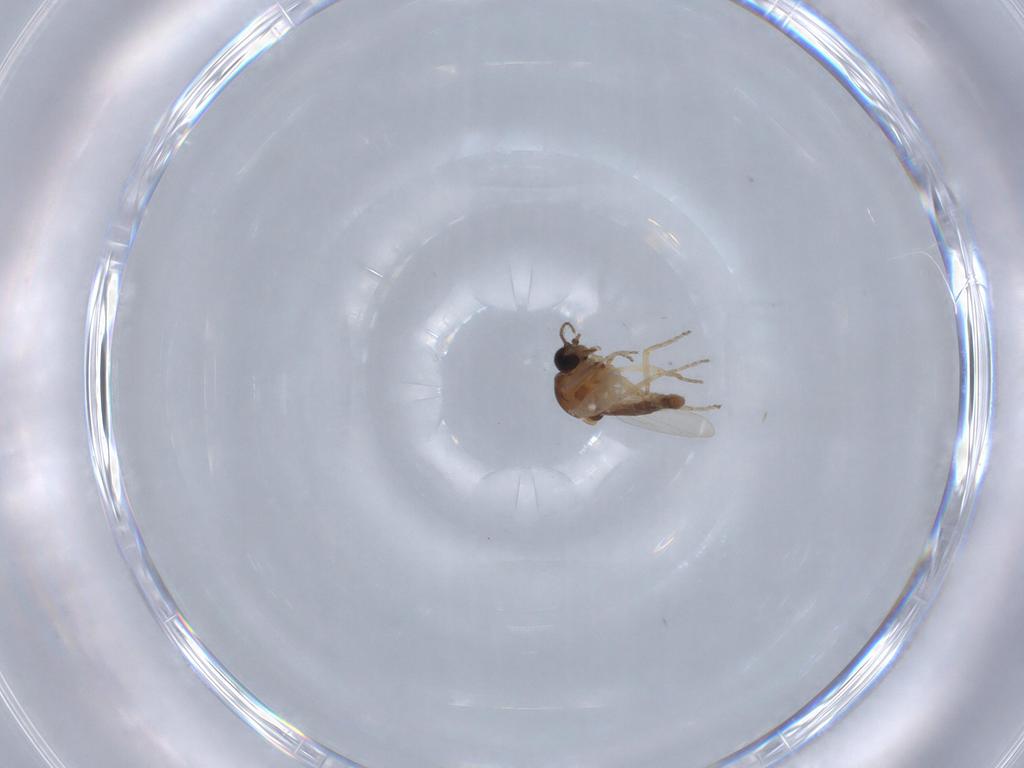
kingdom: Animalia
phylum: Arthropoda
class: Insecta
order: Diptera
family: Ceratopogonidae
